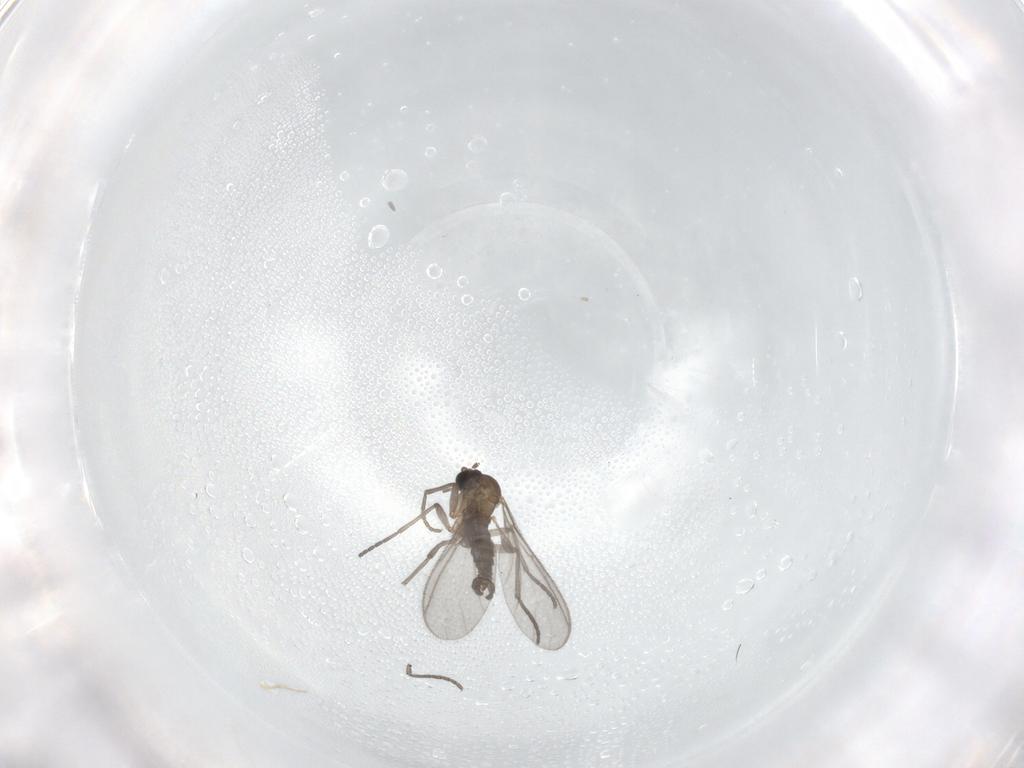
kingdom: Animalia
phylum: Arthropoda
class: Insecta
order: Diptera
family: Sciaridae
